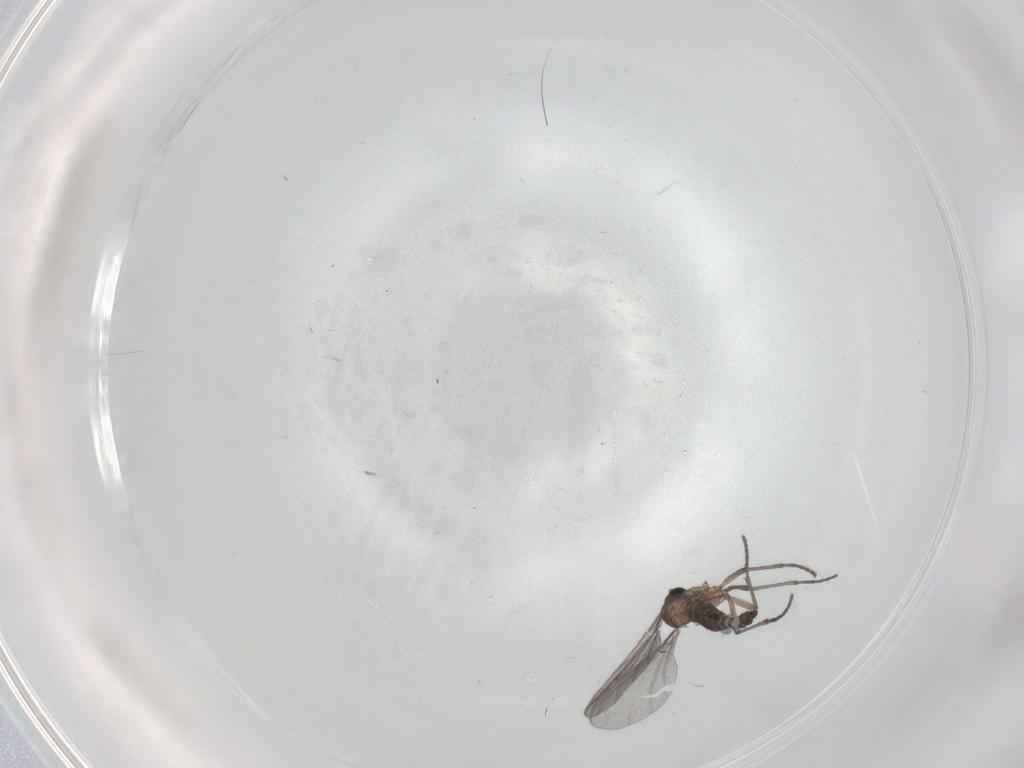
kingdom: Animalia
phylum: Arthropoda
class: Insecta
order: Diptera
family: Sciaridae
